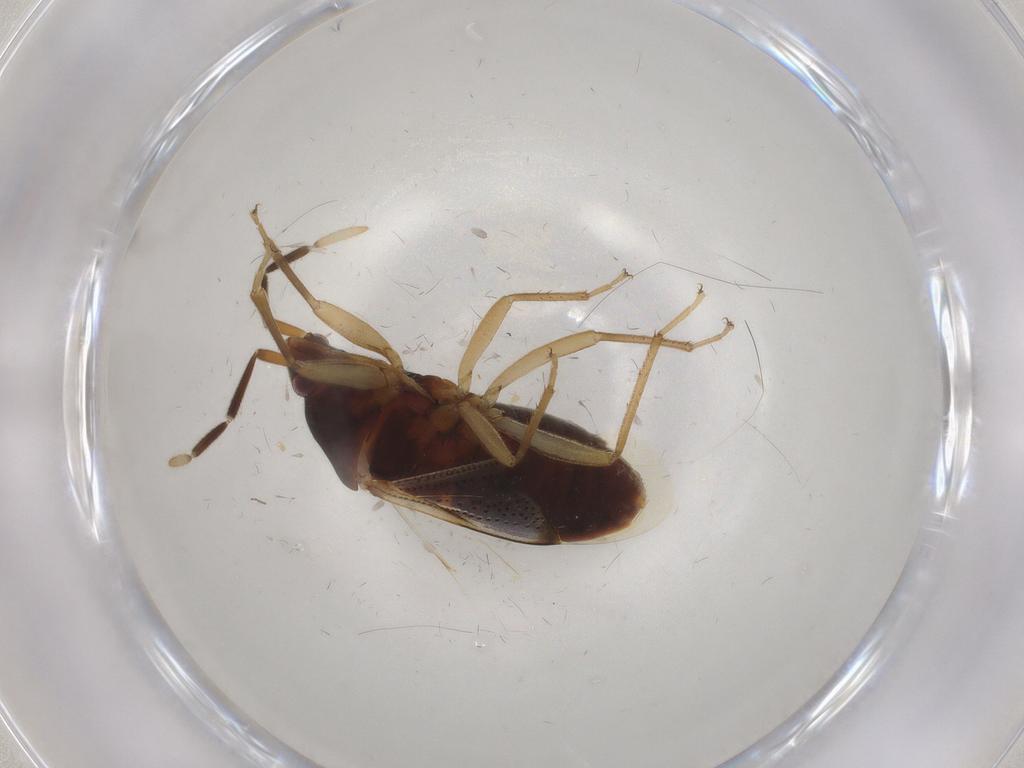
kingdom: Animalia
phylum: Arthropoda
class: Insecta
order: Hemiptera
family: Rhyparochromidae
